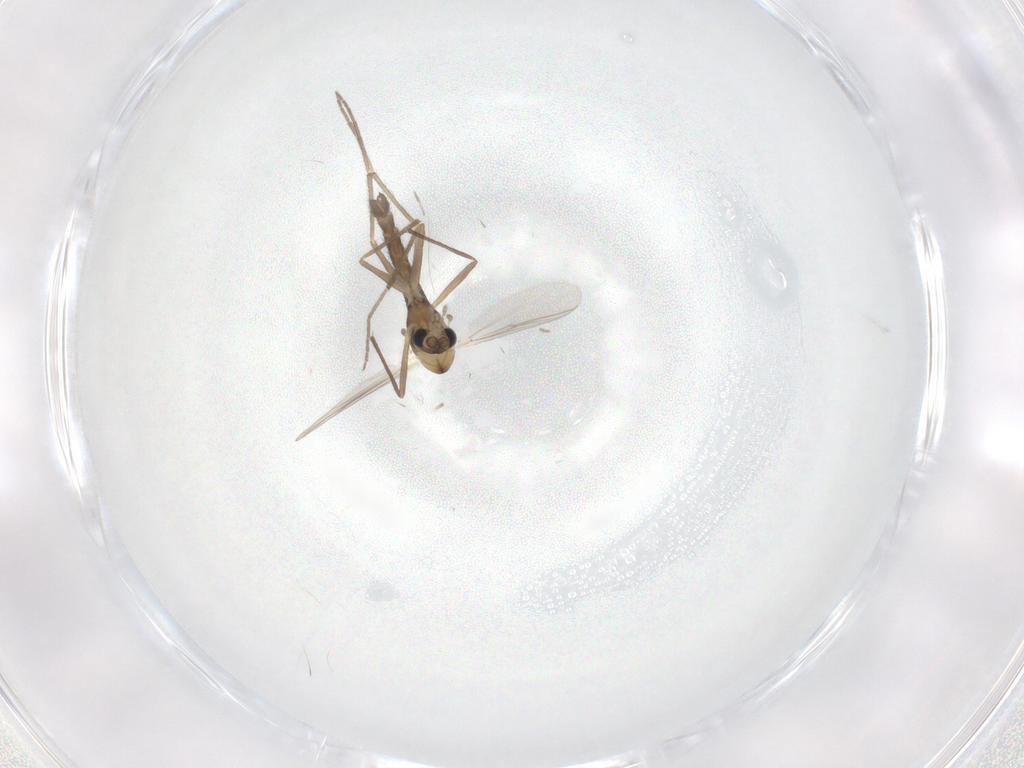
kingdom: Animalia
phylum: Arthropoda
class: Insecta
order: Diptera
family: Chironomidae
